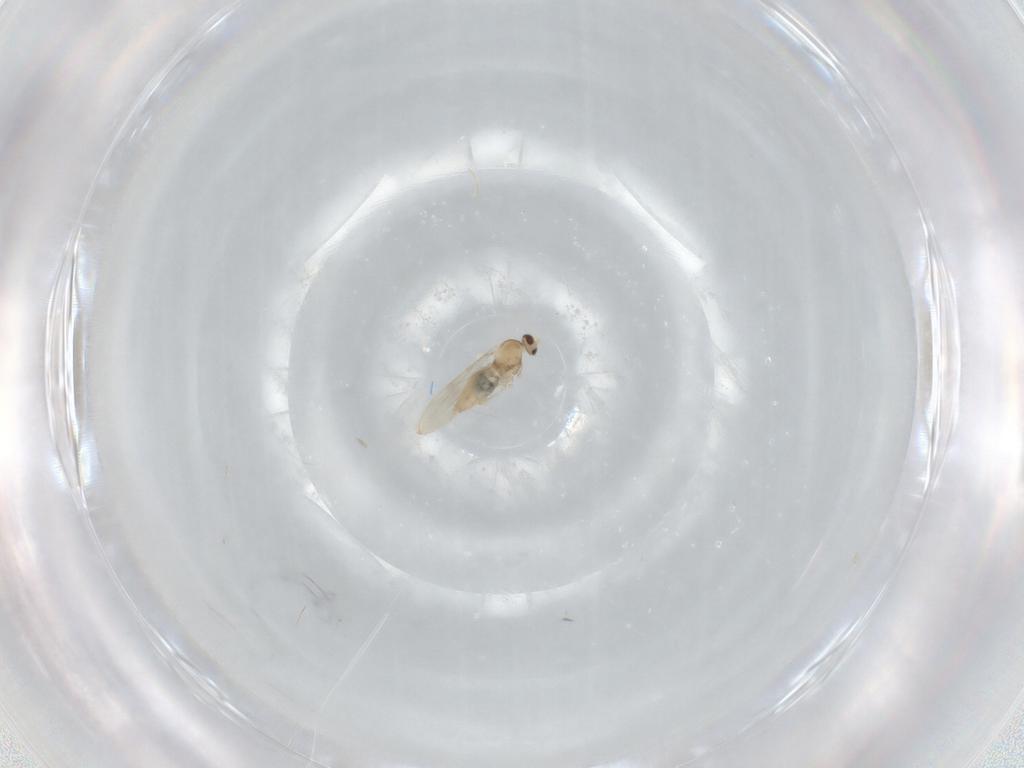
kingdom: Animalia
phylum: Arthropoda
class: Insecta
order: Diptera
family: Cecidomyiidae
